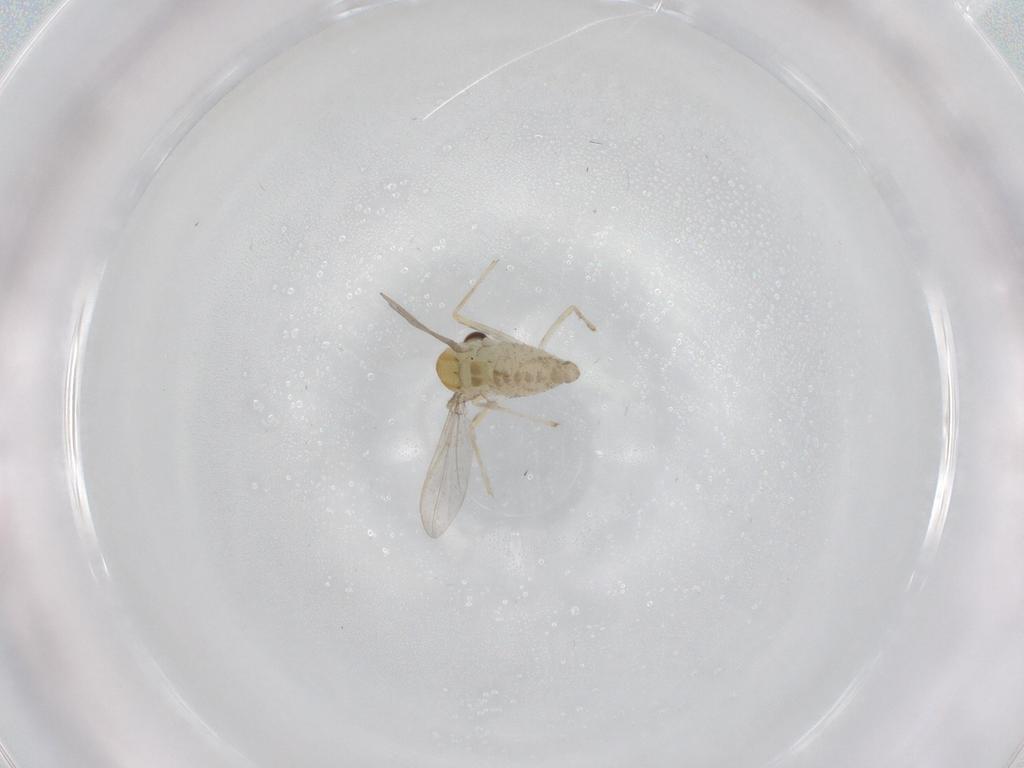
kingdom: Animalia
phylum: Arthropoda
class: Insecta
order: Diptera
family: Chironomidae
